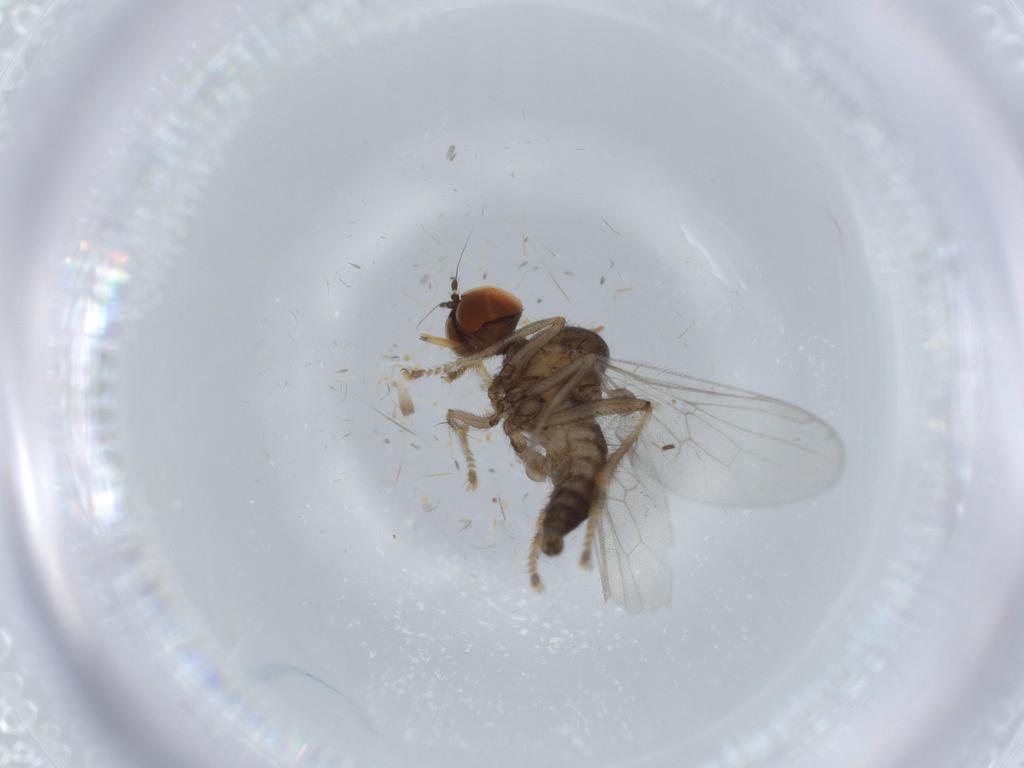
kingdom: Animalia
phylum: Arthropoda
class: Insecta
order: Diptera
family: Hybotidae
